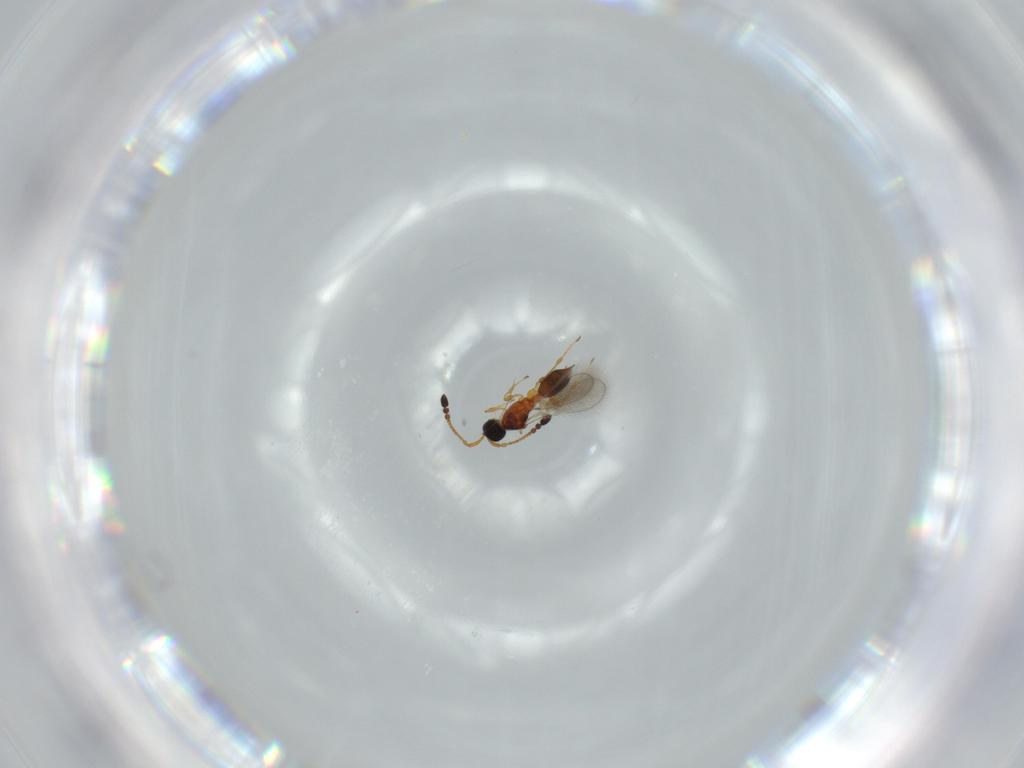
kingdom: Animalia
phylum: Arthropoda
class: Insecta
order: Hymenoptera
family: Diapriidae
